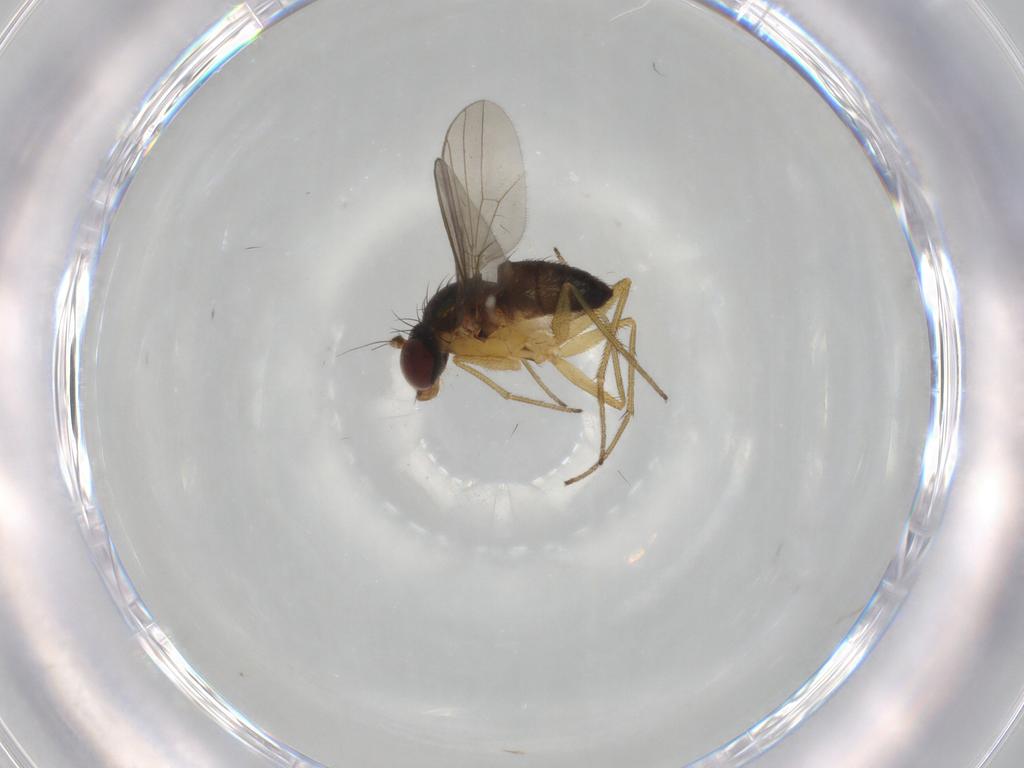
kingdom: Animalia
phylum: Arthropoda
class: Insecta
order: Diptera
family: Dolichopodidae
